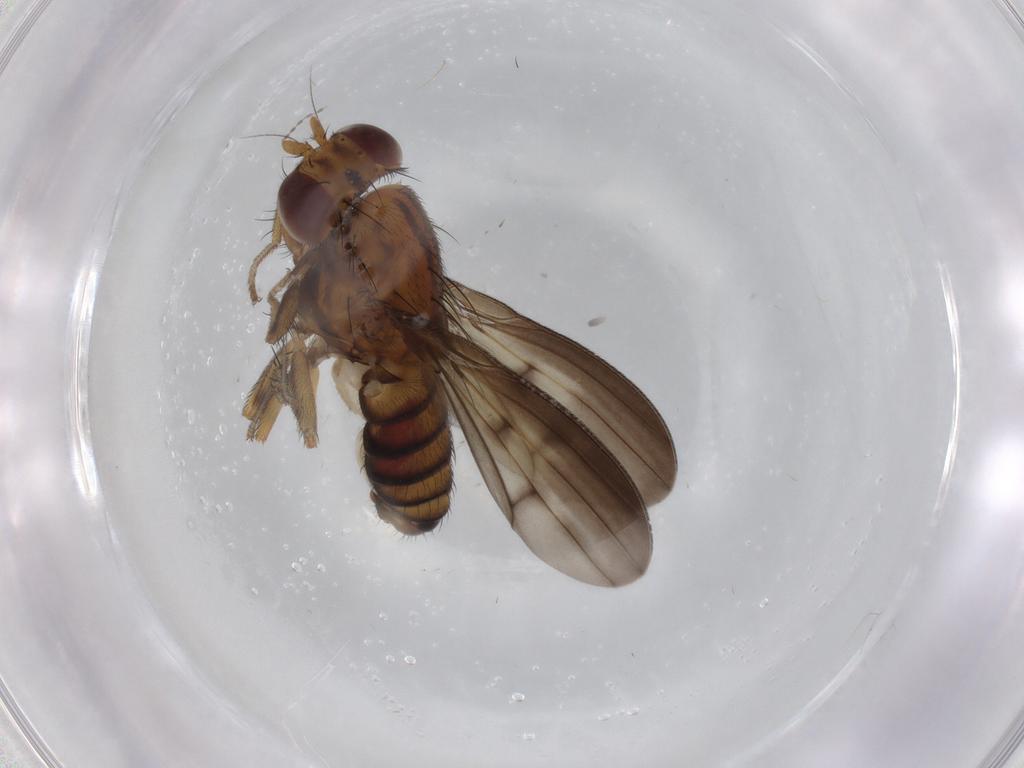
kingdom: Animalia
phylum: Arthropoda
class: Insecta
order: Diptera
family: Lauxaniidae
